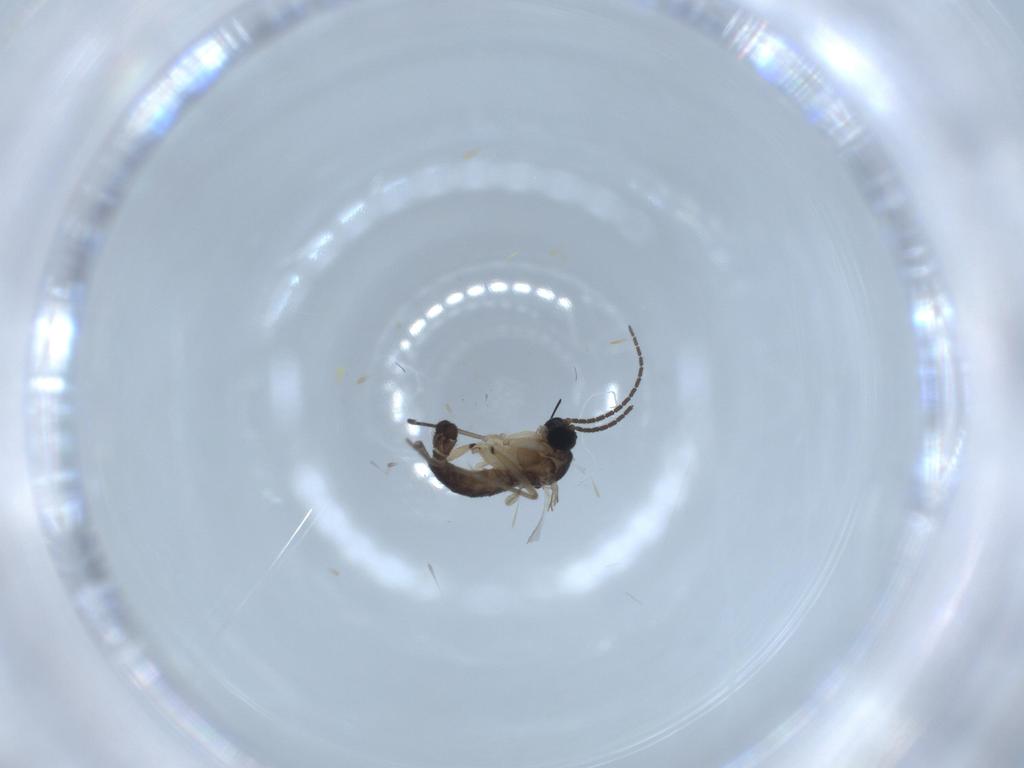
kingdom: Animalia
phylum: Arthropoda
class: Insecta
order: Diptera
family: Sciaridae
